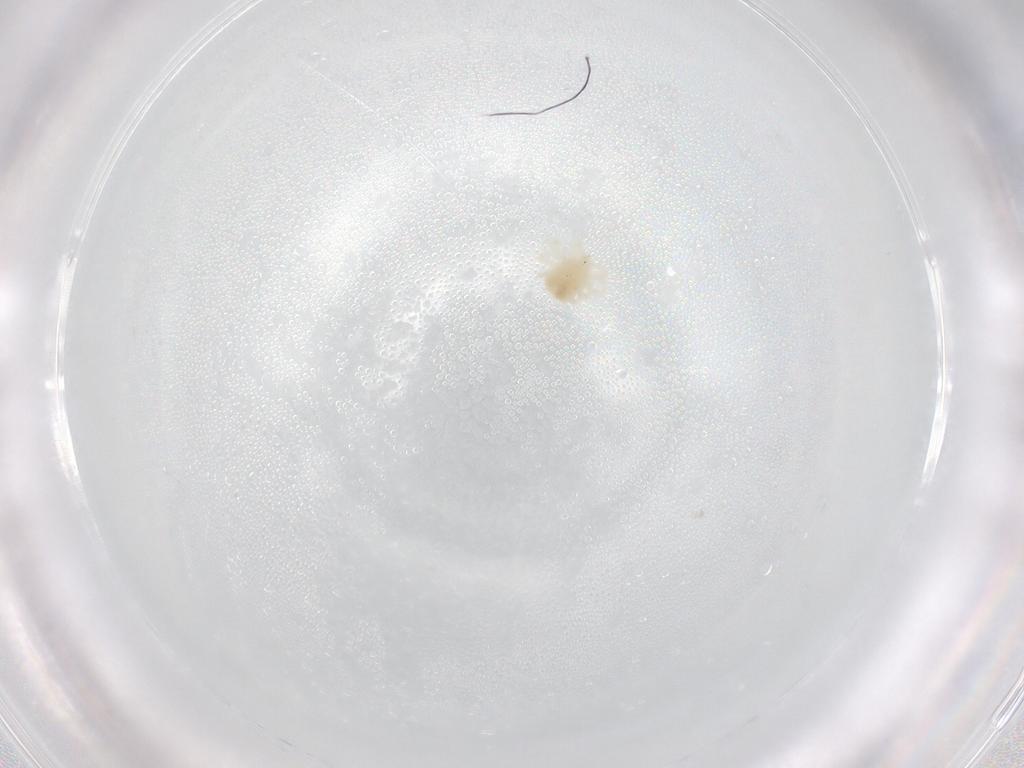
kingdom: Animalia
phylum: Arthropoda
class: Arachnida
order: Trombidiformes
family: Anystidae
